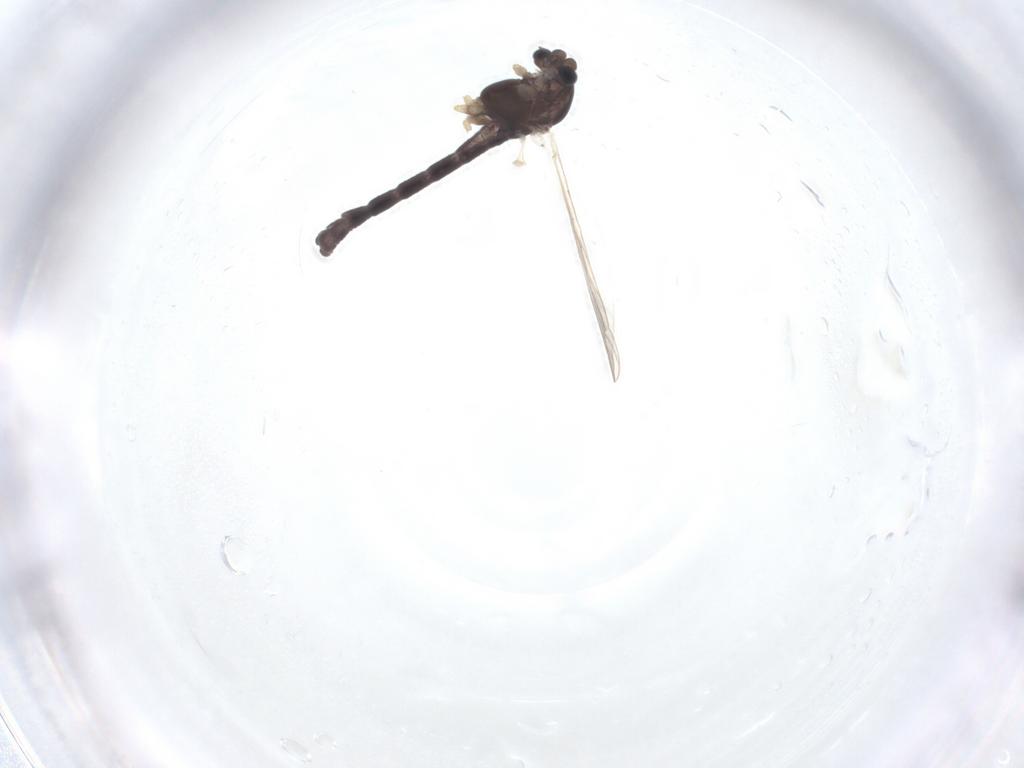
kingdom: Animalia
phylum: Arthropoda
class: Insecta
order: Diptera
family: Chironomidae
